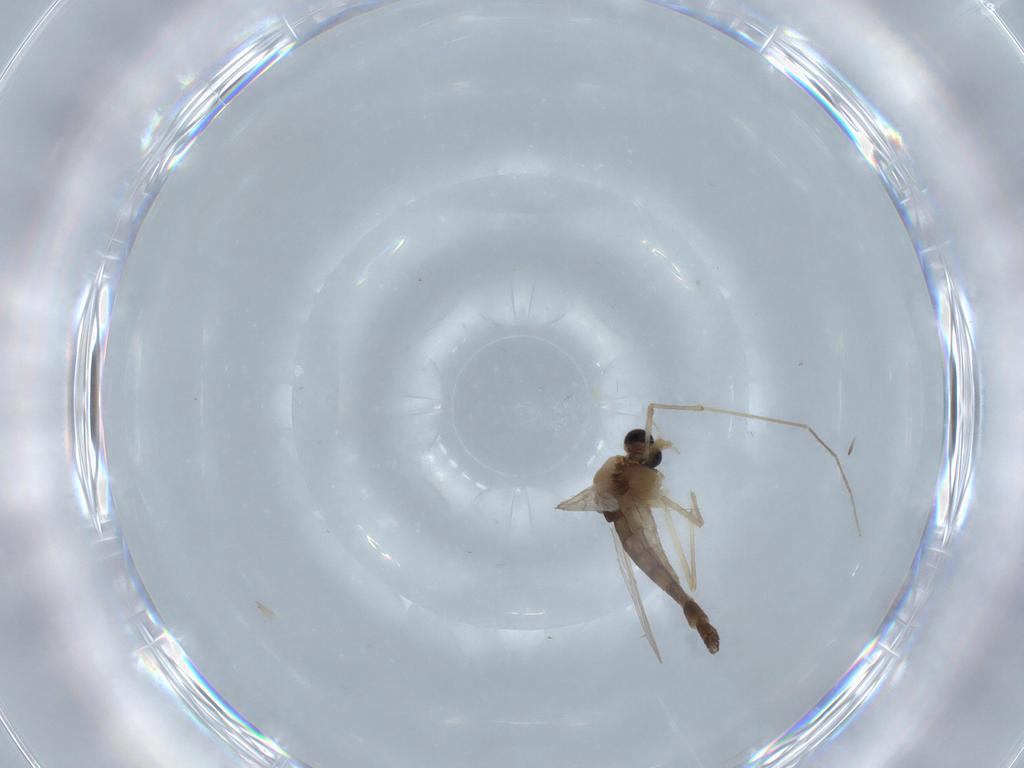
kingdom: Animalia
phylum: Arthropoda
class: Insecta
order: Diptera
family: Chironomidae
